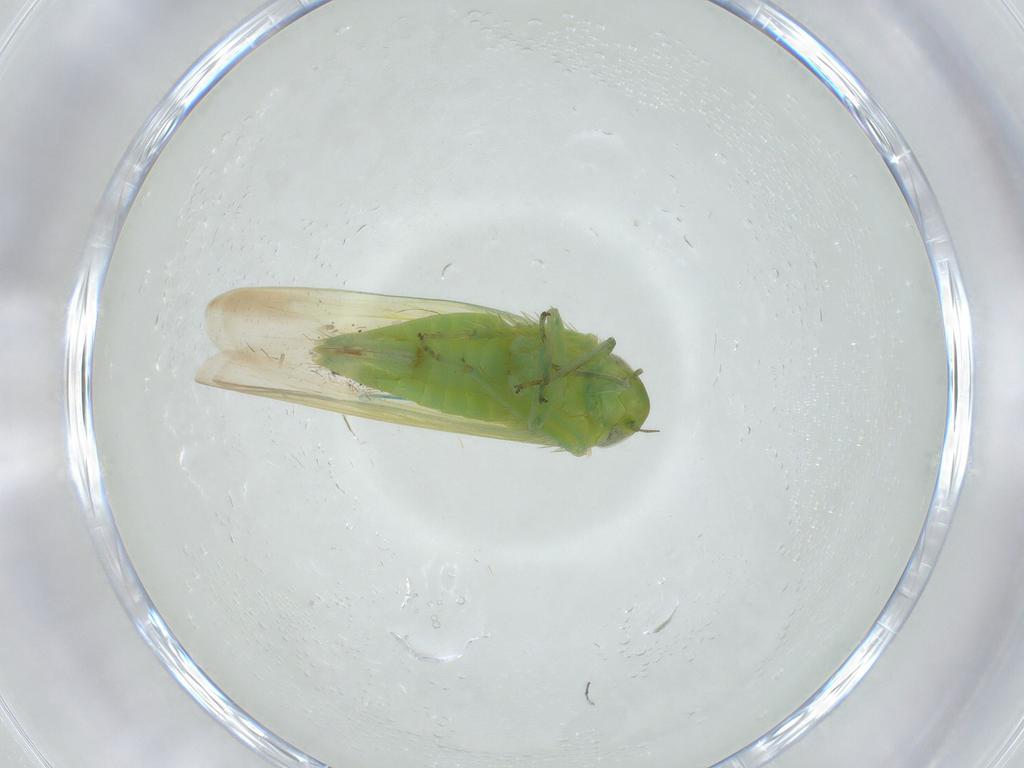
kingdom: Animalia
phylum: Arthropoda
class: Insecta
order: Hemiptera
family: Cicadellidae
